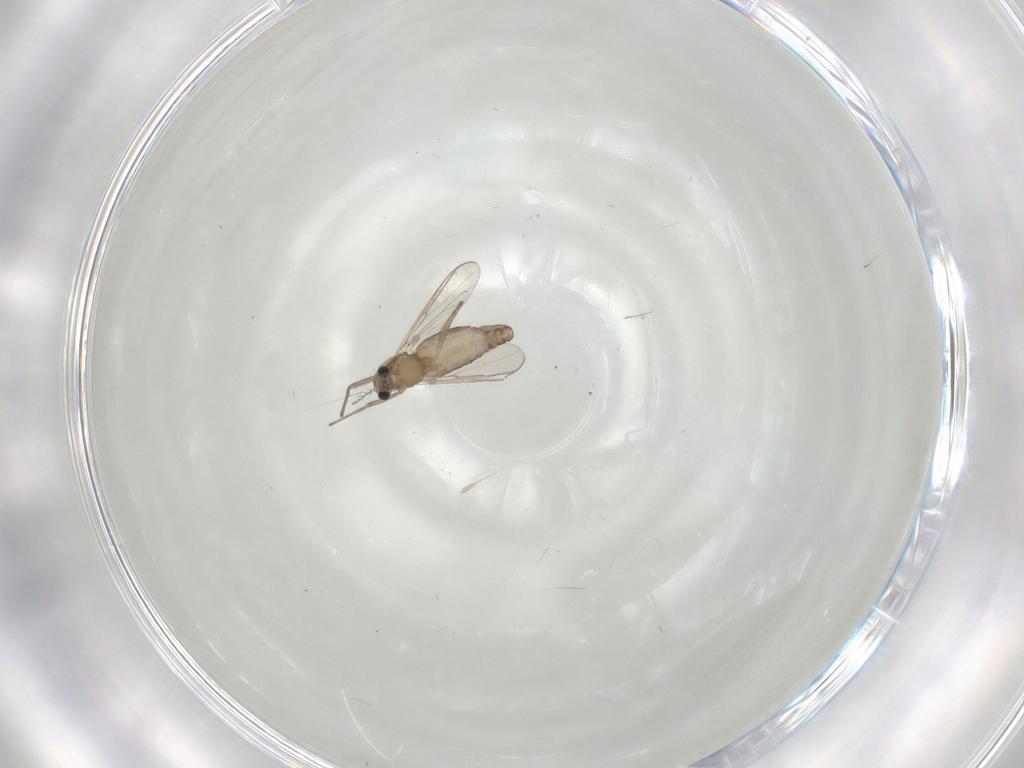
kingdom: Animalia
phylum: Arthropoda
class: Insecta
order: Diptera
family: Chironomidae
